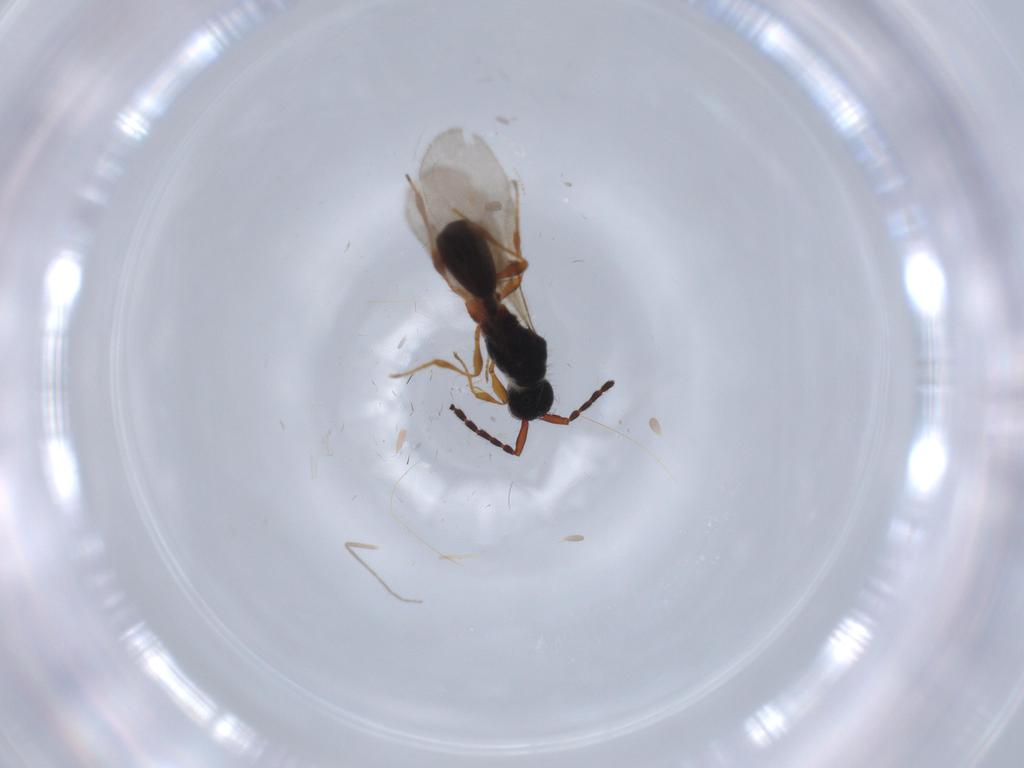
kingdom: Animalia
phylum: Arthropoda
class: Insecta
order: Hymenoptera
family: Diapriidae
